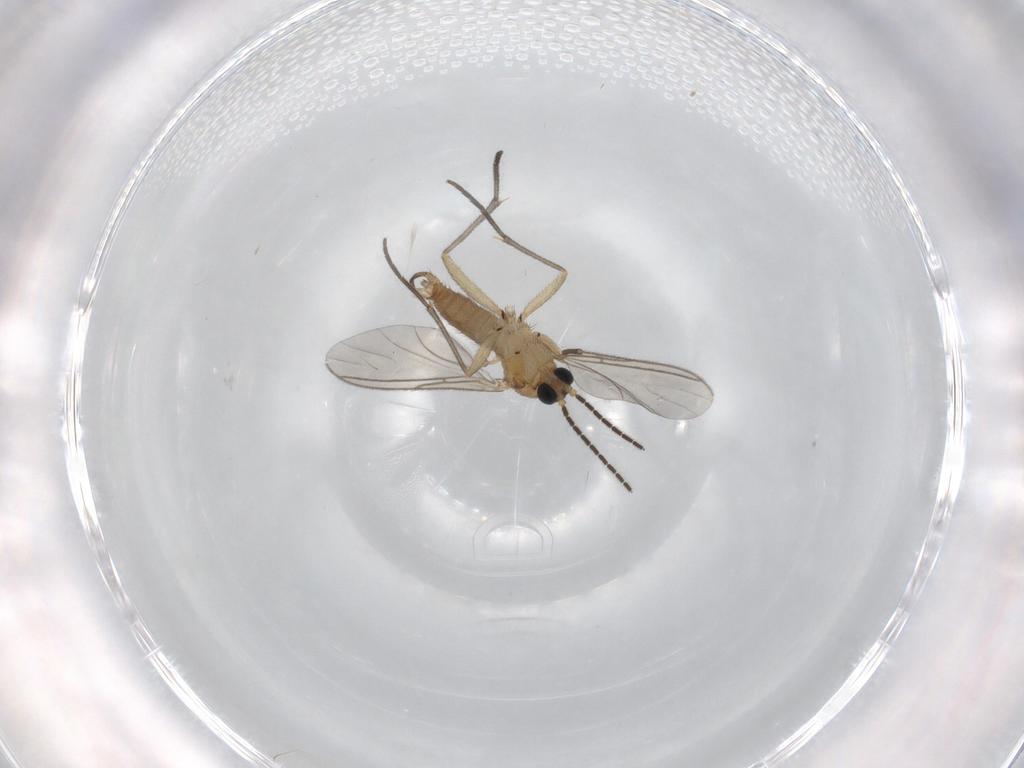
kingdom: Animalia
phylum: Arthropoda
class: Insecta
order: Diptera
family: Sciaridae
